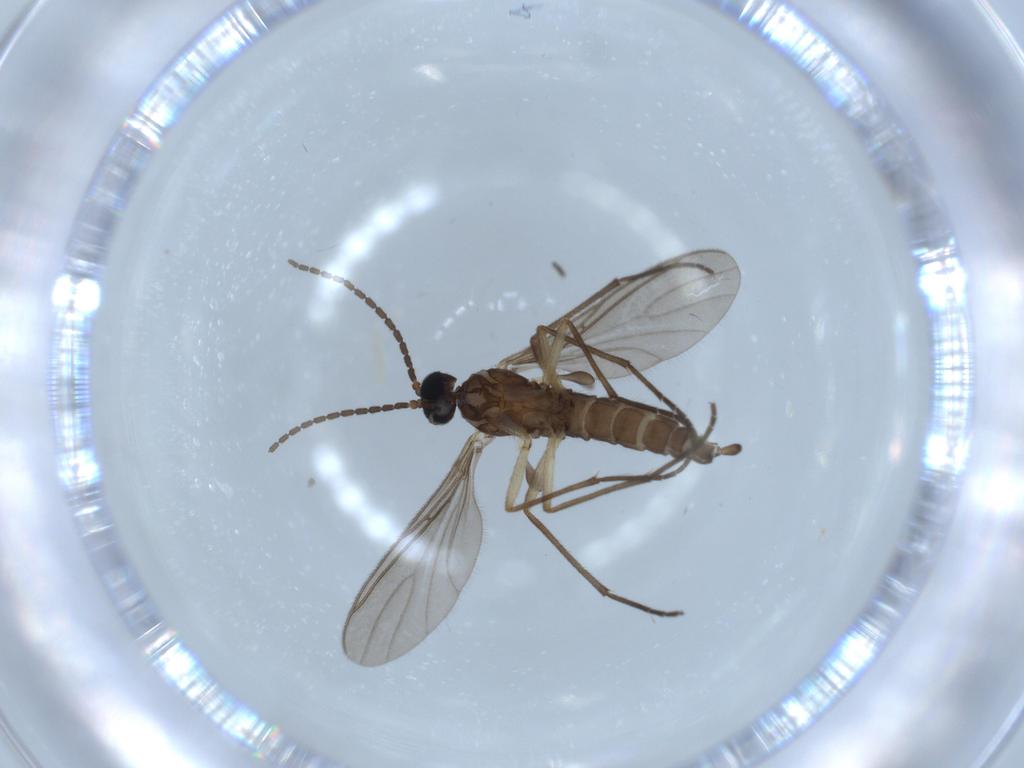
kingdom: Animalia
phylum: Arthropoda
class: Insecta
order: Diptera
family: Sciaridae
